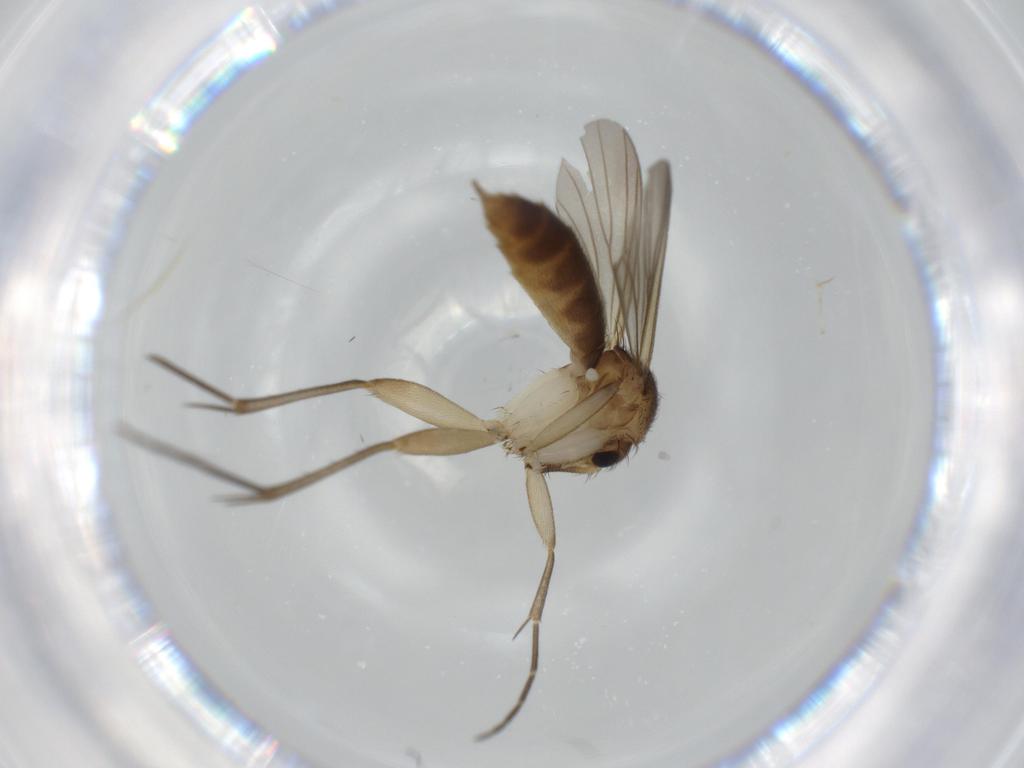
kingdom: Animalia
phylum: Arthropoda
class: Insecta
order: Diptera
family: Mycetophilidae
